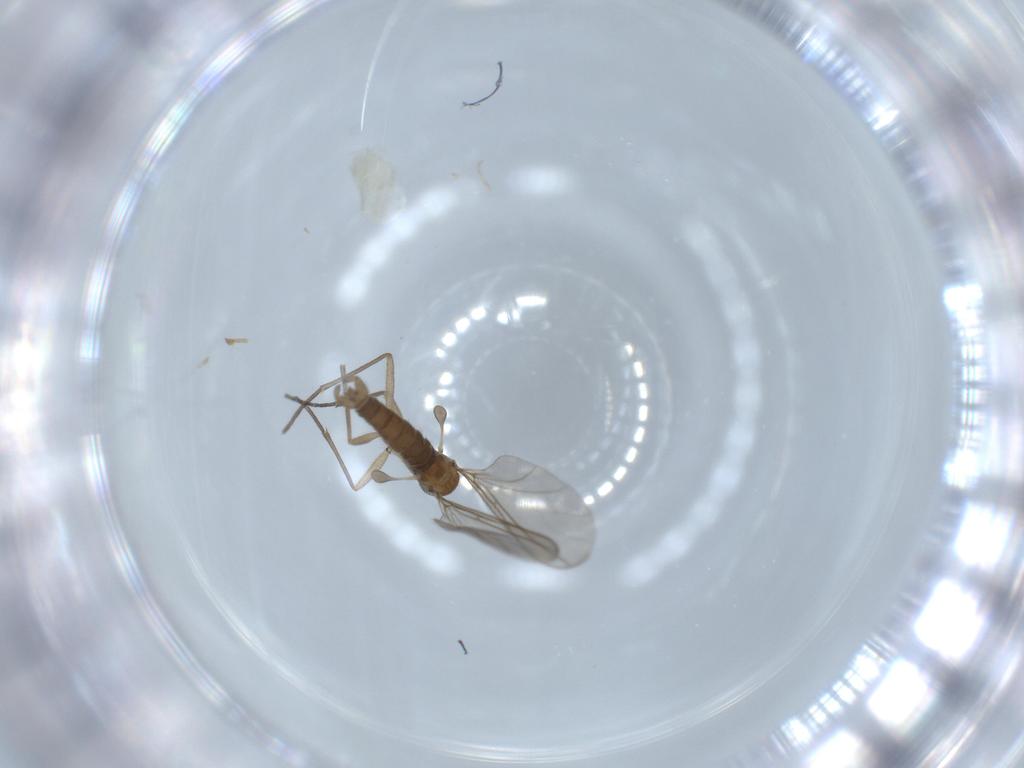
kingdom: Animalia
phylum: Arthropoda
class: Insecta
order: Diptera
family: Sciaridae
